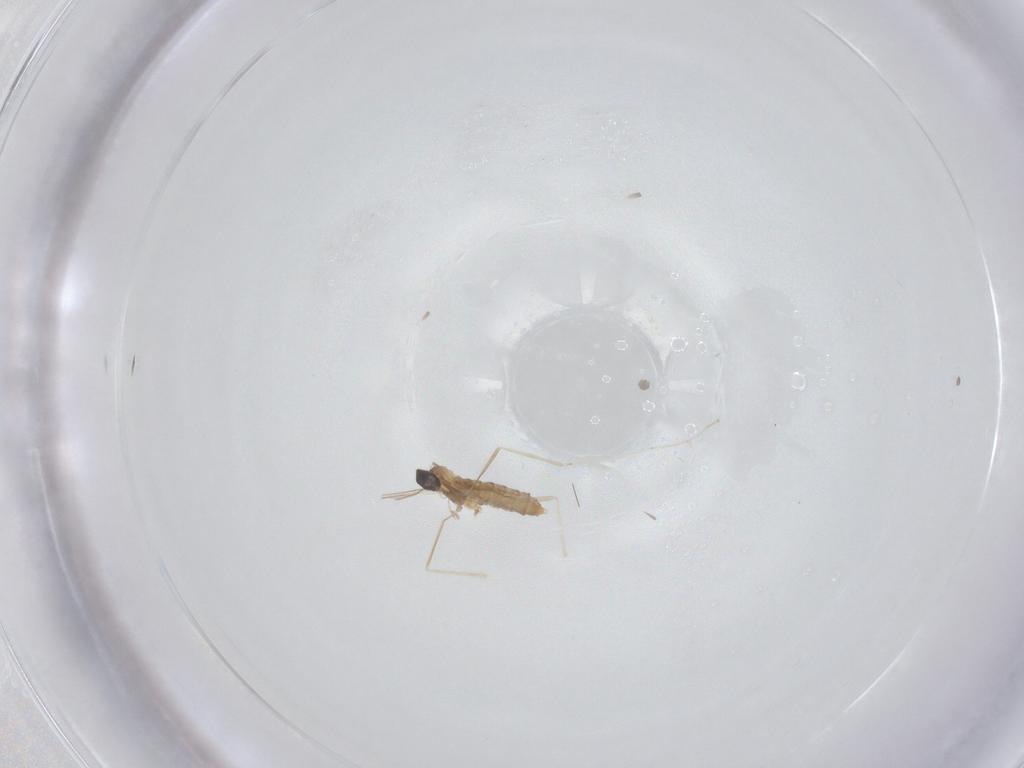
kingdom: Animalia
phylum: Arthropoda
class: Insecta
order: Diptera
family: Cecidomyiidae
